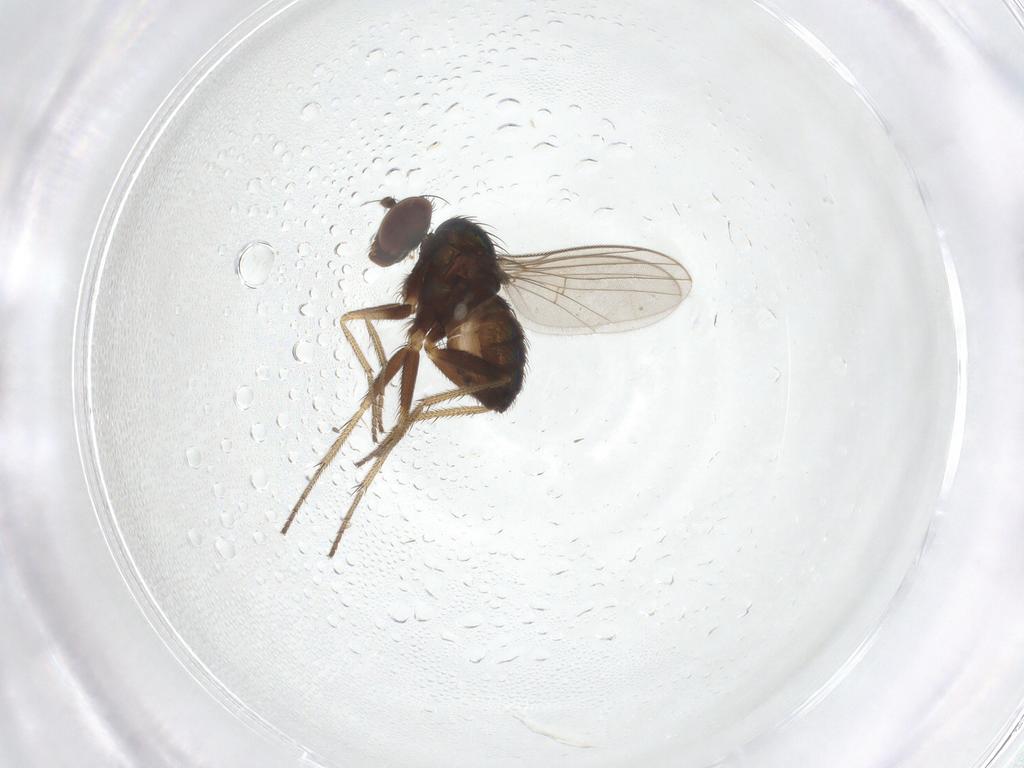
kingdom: Animalia
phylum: Arthropoda
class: Insecta
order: Diptera
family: Dolichopodidae
